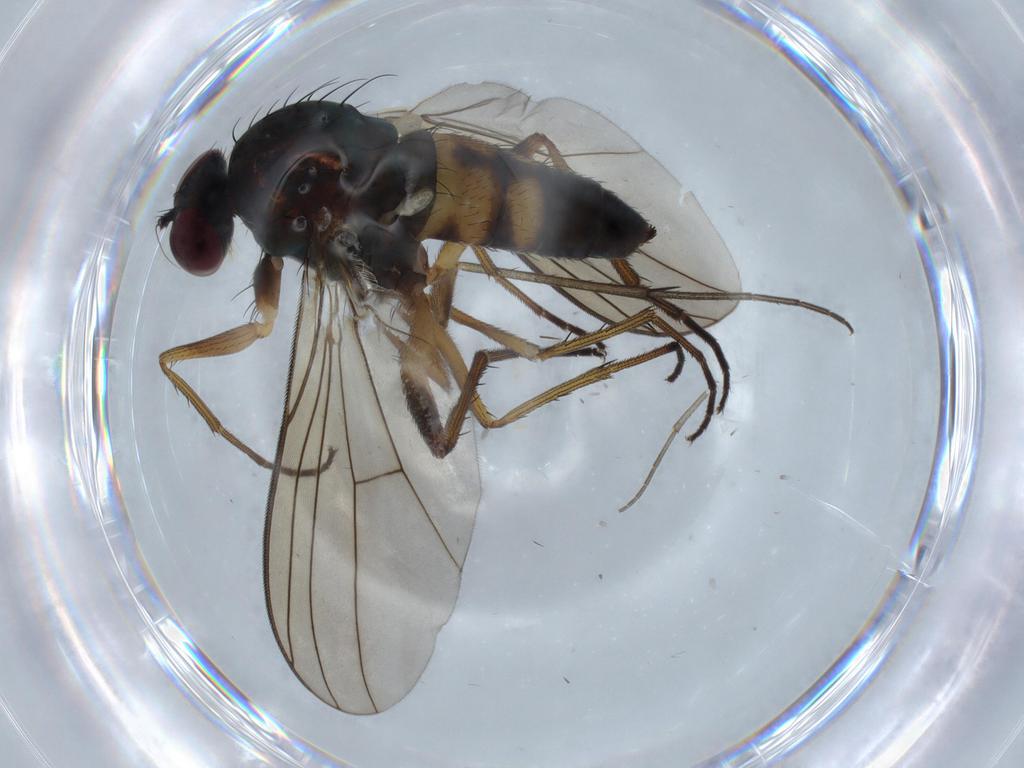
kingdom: Animalia
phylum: Arthropoda
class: Insecta
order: Diptera
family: Dolichopodidae
